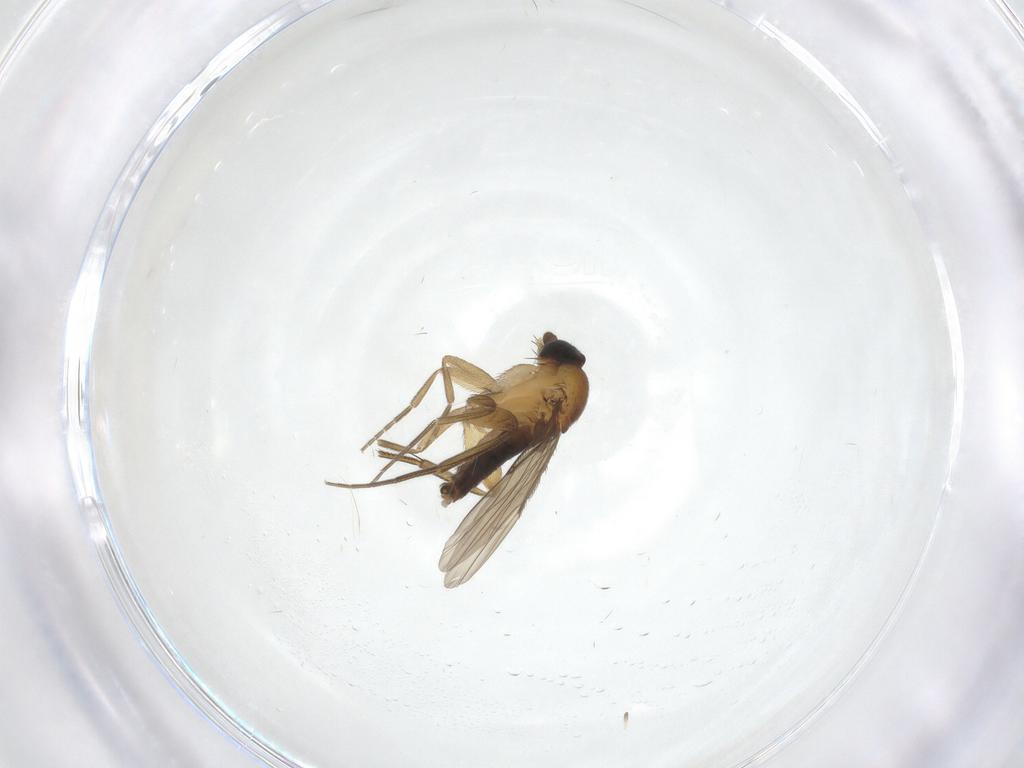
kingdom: Animalia
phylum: Arthropoda
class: Insecta
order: Diptera
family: Phoridae
